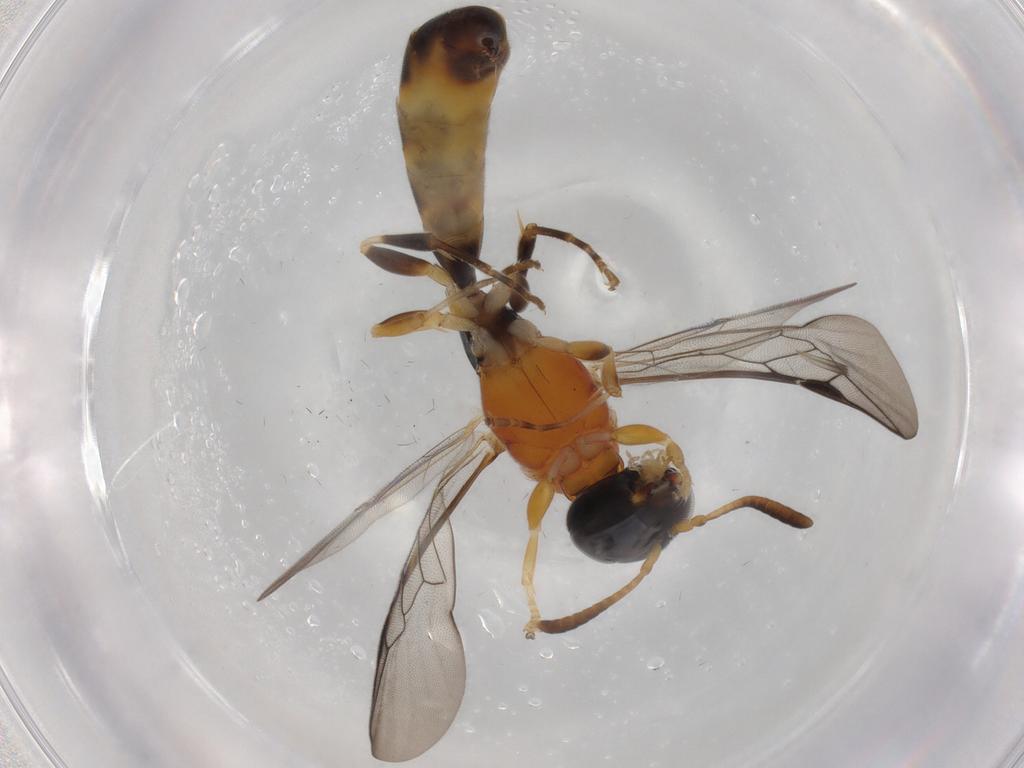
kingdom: Animalia
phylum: Arthropoda
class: Insecta
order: Hymenoptera
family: Crabronidae
